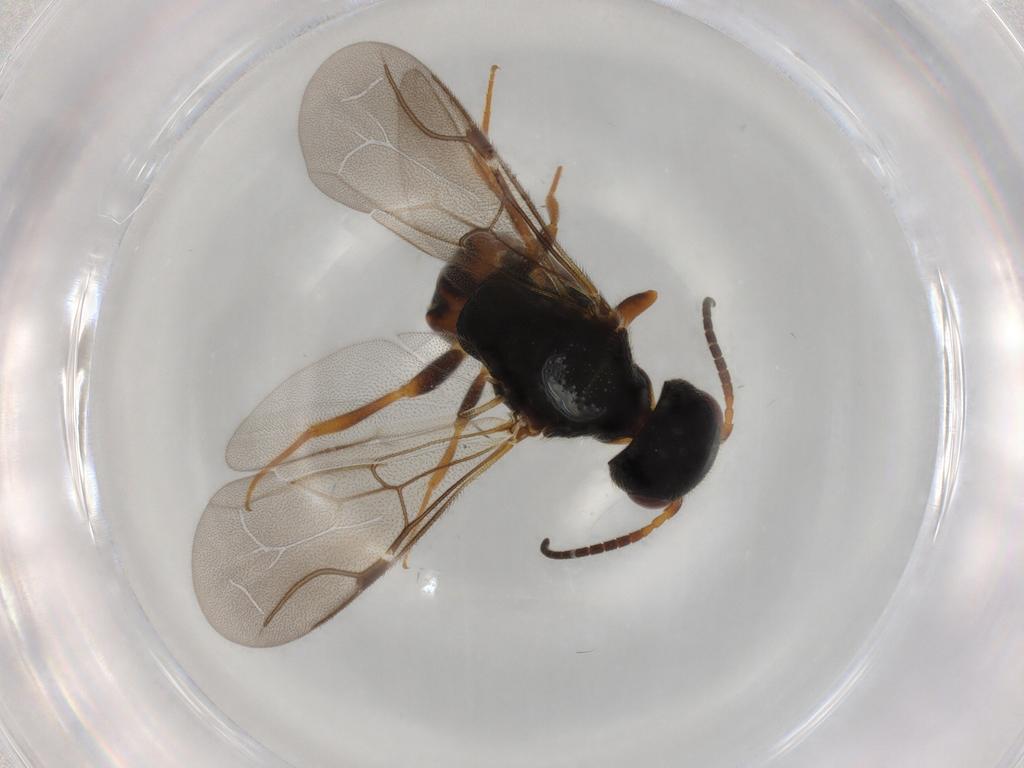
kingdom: Animalia
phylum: Arthropoda
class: Insecta
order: Hymenoptera
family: Bethylidae
